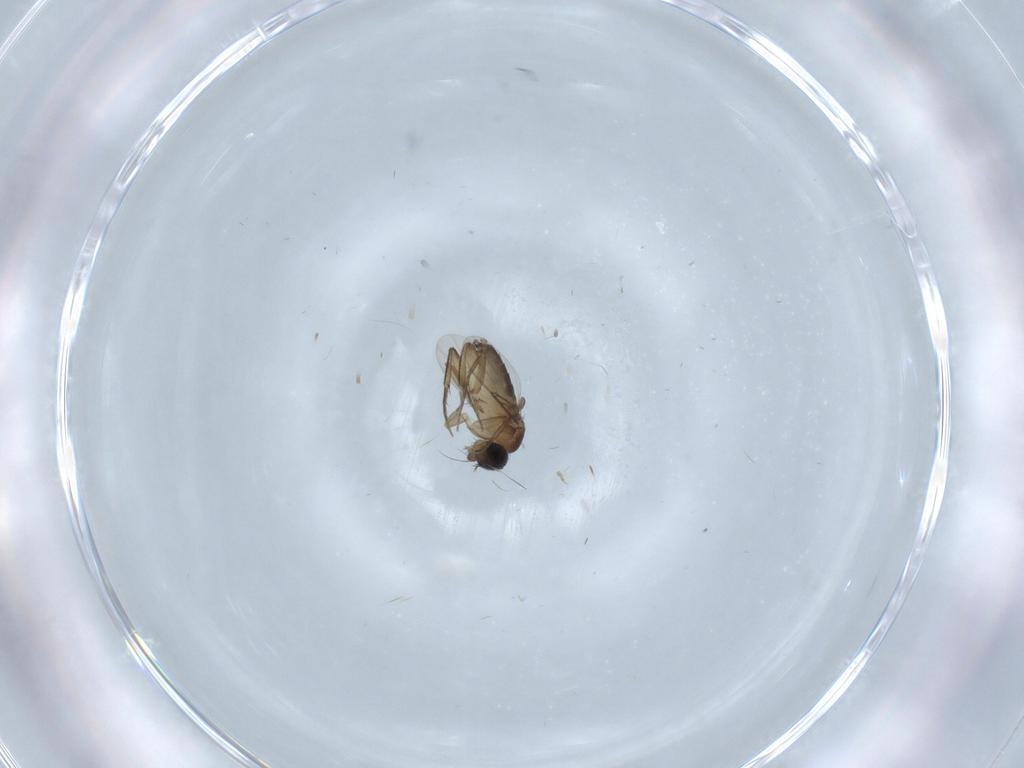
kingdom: Animalia
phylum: Arthropoda
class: Insecta
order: Diptera
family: Phoridae
